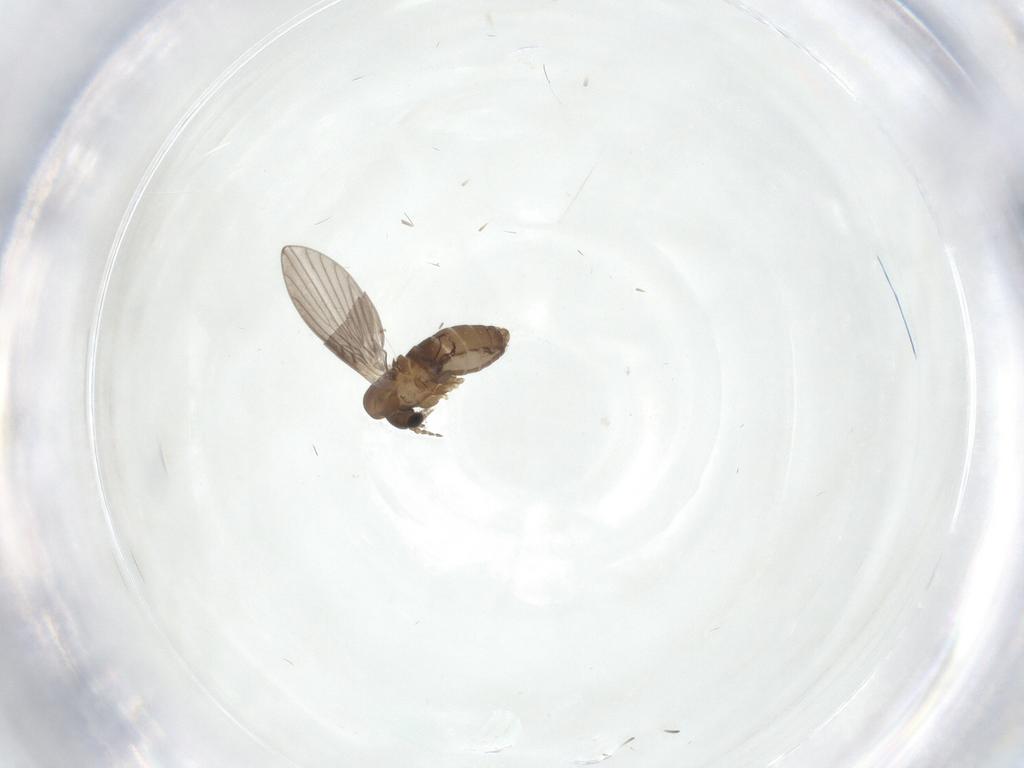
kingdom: Animalia
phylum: Arthropoda
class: Insecta
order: Diptera
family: Psychodidae
